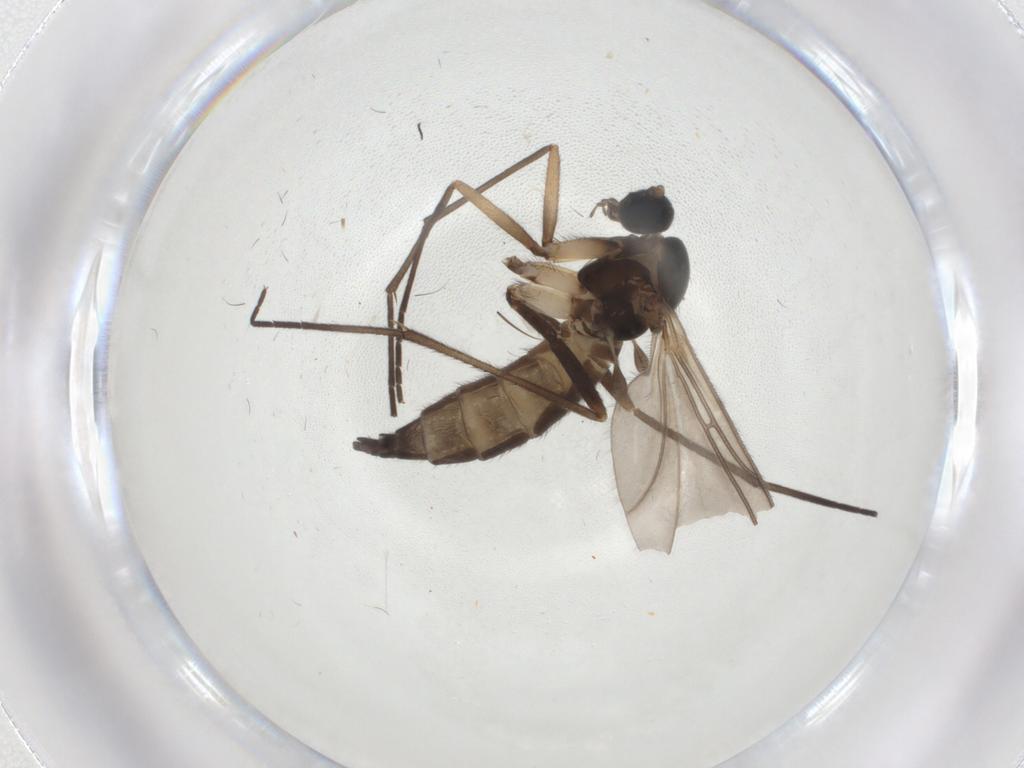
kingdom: Animalia
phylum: Arthropoda
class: Insecta
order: Diptera
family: Sciaridae
